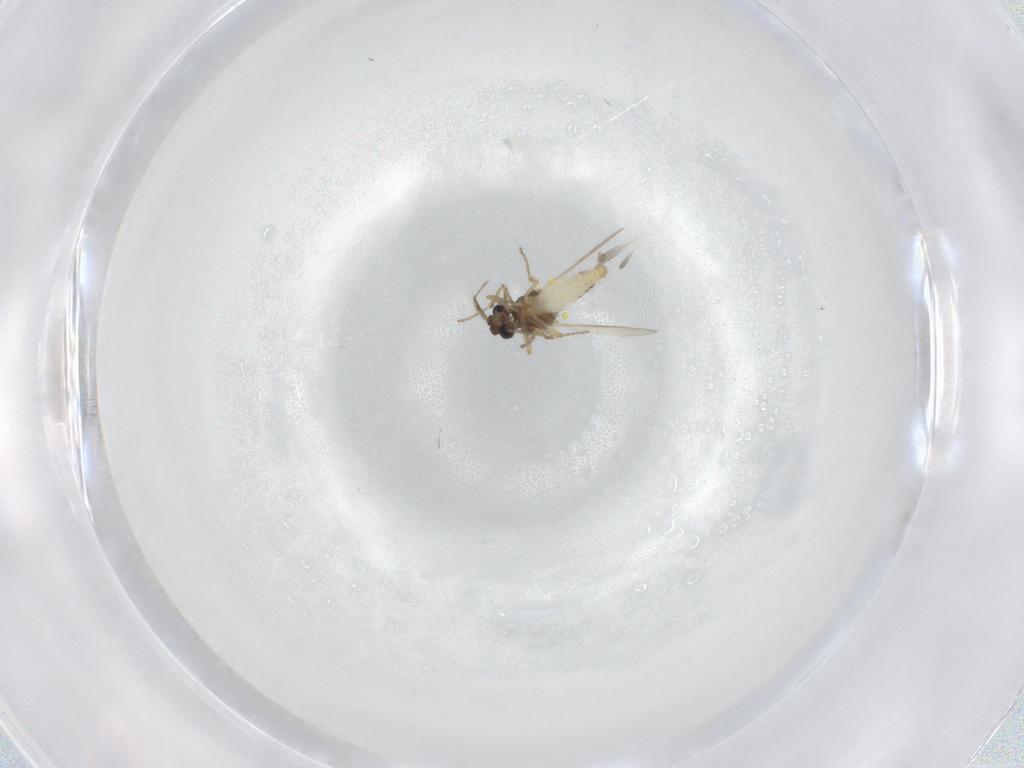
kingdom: Animalia
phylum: Arthropoda
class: Insecta
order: Diptera
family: Ceratopogonidae
